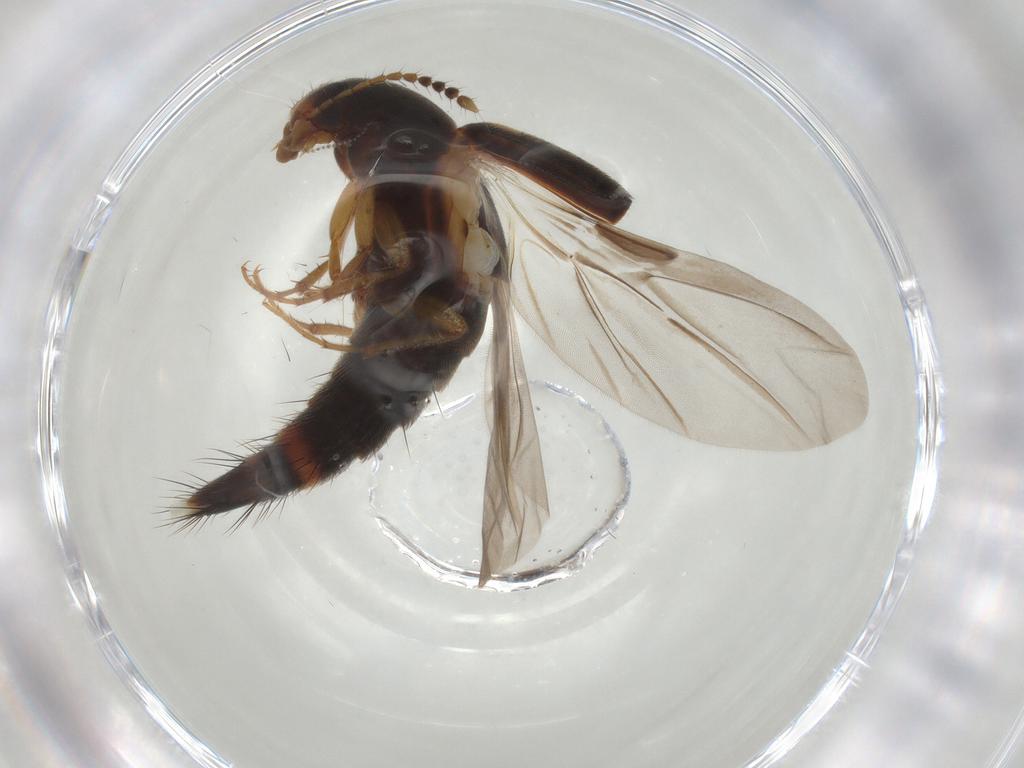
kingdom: Animalia
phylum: Arthropoda
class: Insecta
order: Coleoptera
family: Staphylinidae
